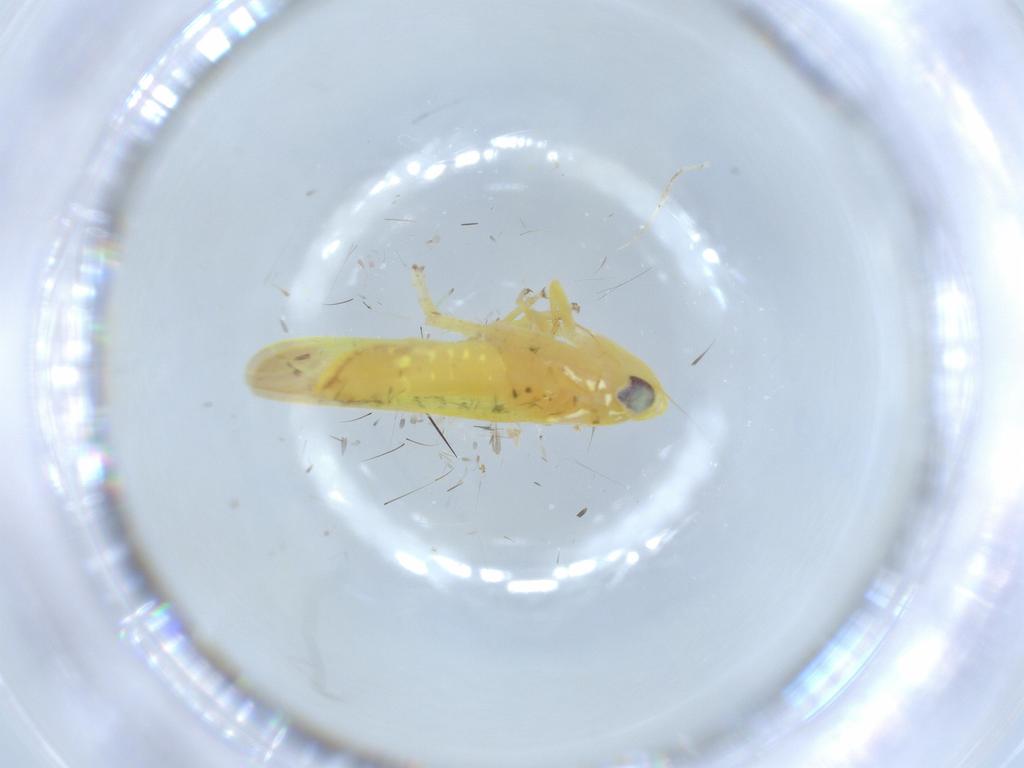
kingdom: Animalia
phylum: Arthropoda
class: Insecta
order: Hemiptera
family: Cicadellidae
